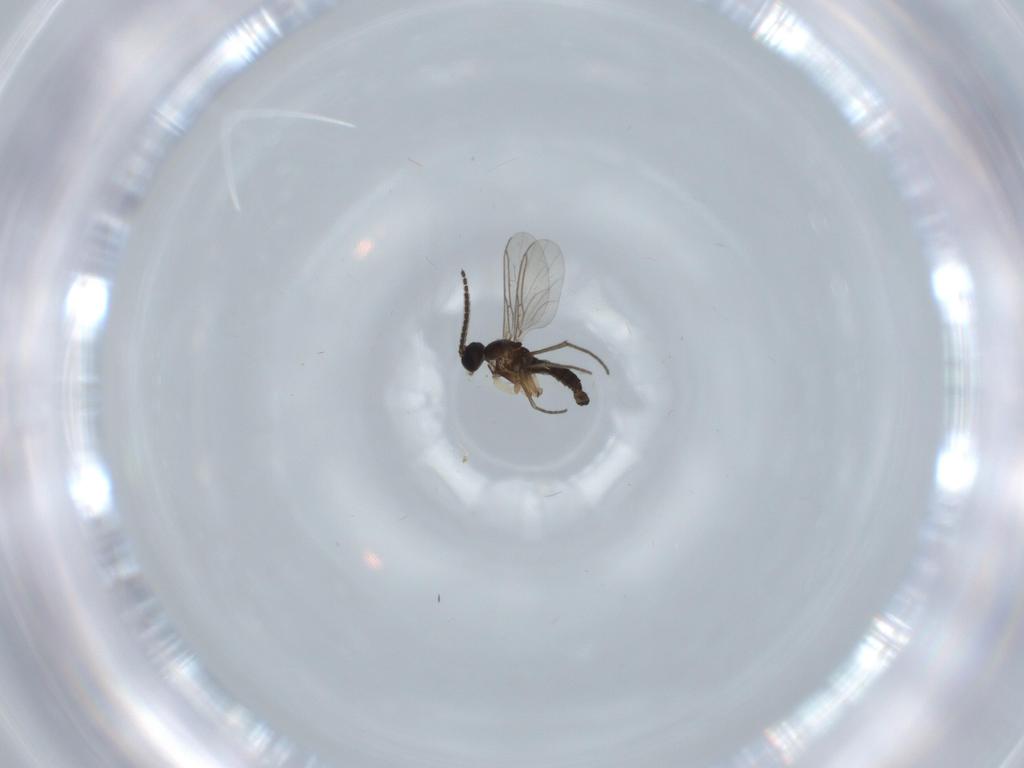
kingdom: Animalia
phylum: Arthropoda
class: Insecta
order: Diptera
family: Sciaridae
